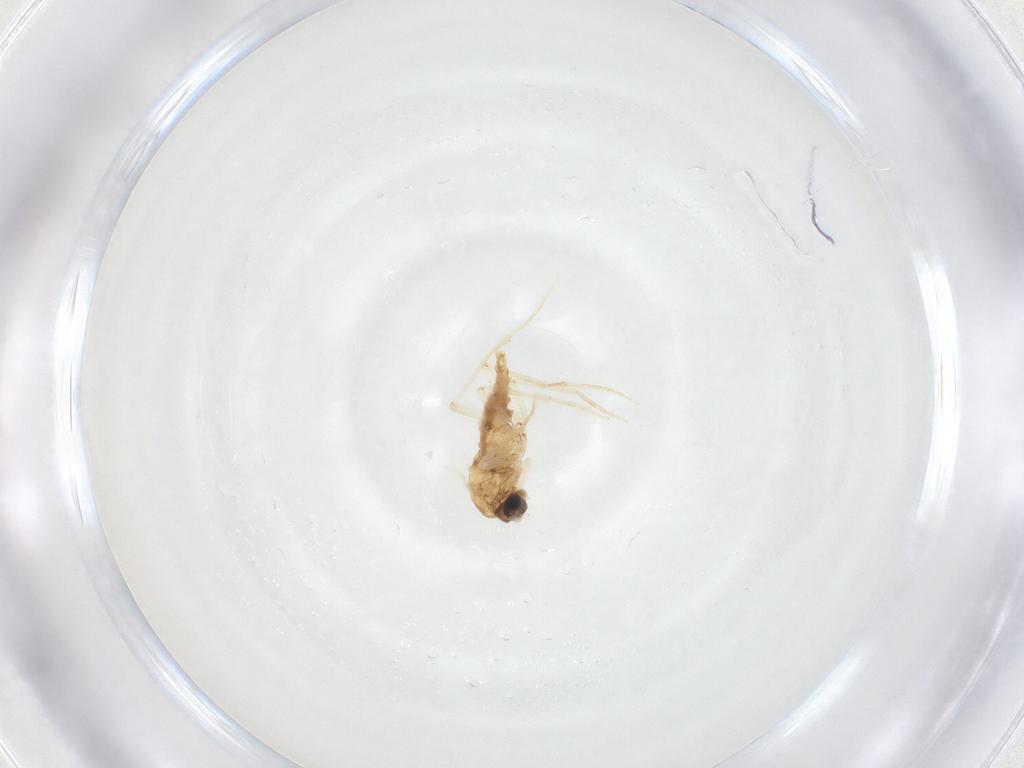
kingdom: Animalia
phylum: Arthropoda
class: Insecta
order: Diptera
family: Sciaridae
